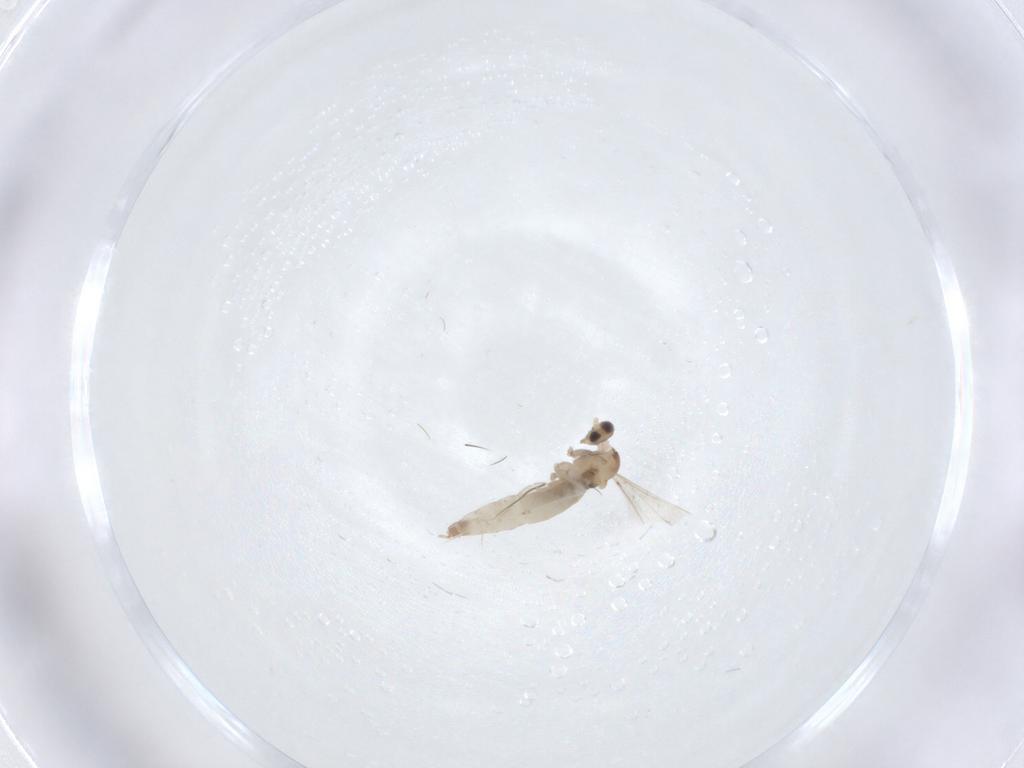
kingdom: Animalia
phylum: Arthropoda
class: Insecta
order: Diptera
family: Cecidomyiidae
